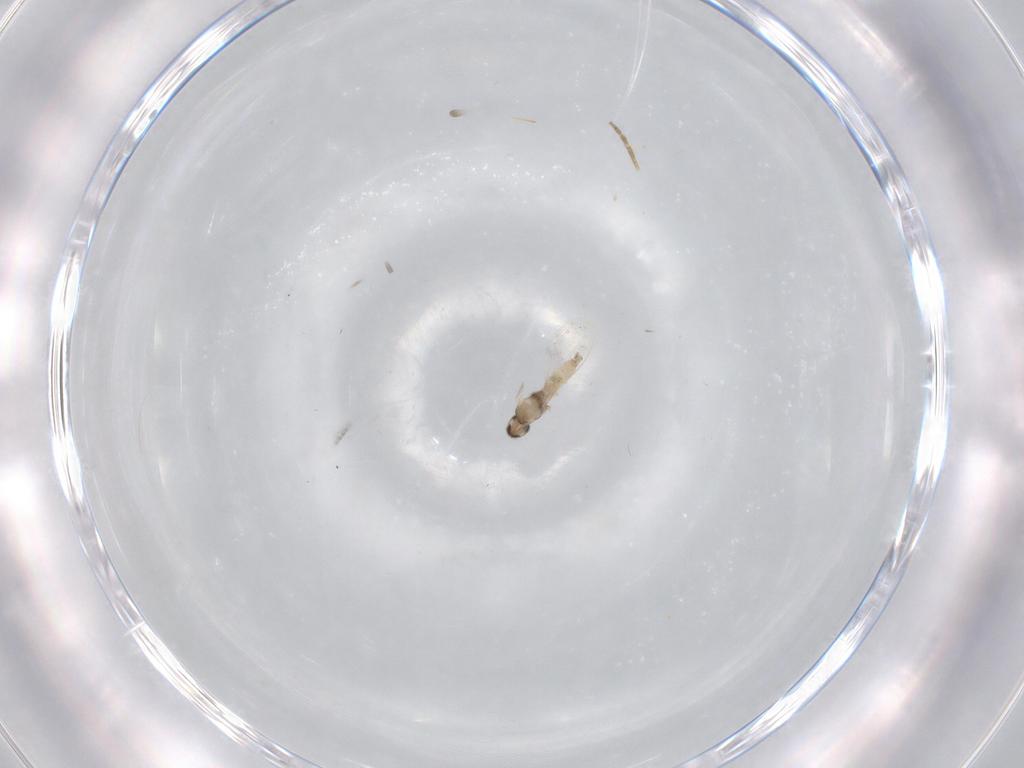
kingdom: Animalia
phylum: Arthropoda
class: Insecta
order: Diptera
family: Cecidomyiidae
